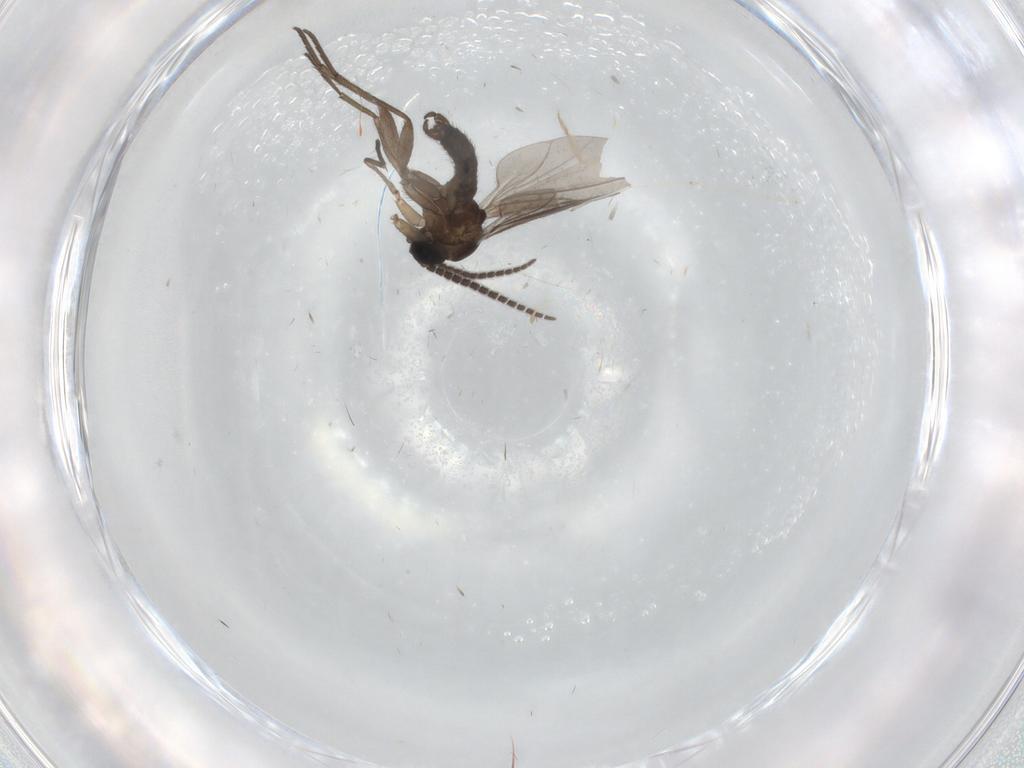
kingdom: Animalia
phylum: Arthropoda
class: Insecta
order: Diptera
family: Sciaridae
